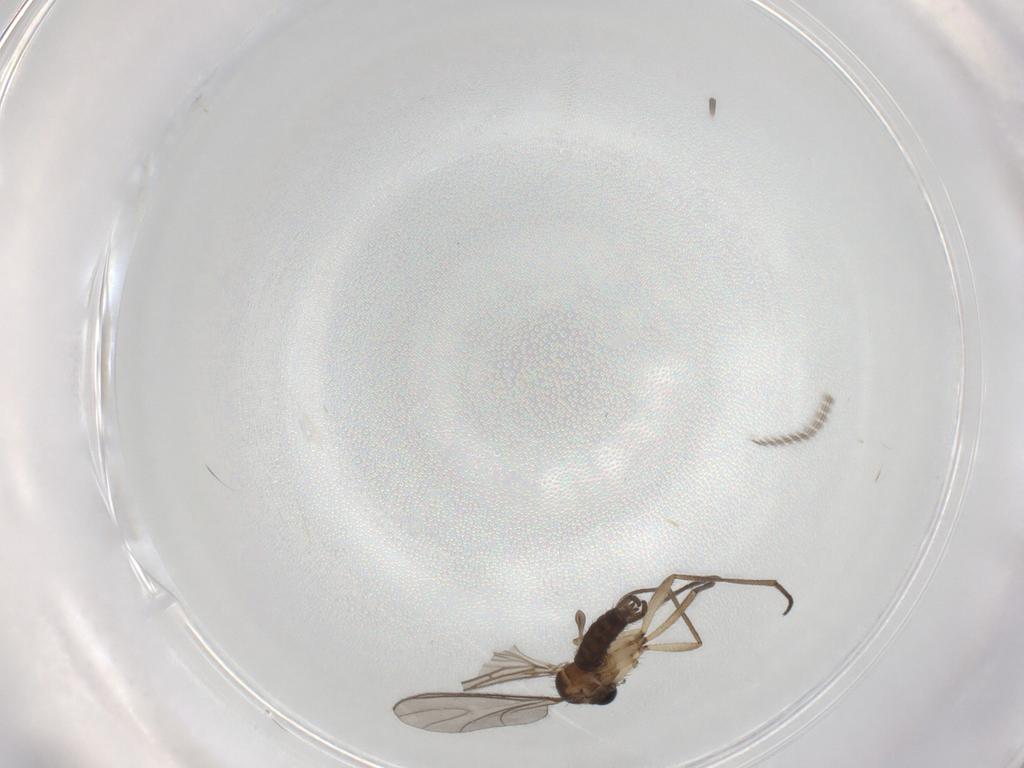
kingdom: Animalia
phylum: Arthropoda
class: Insecta
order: Diptera
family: Sciaridae
